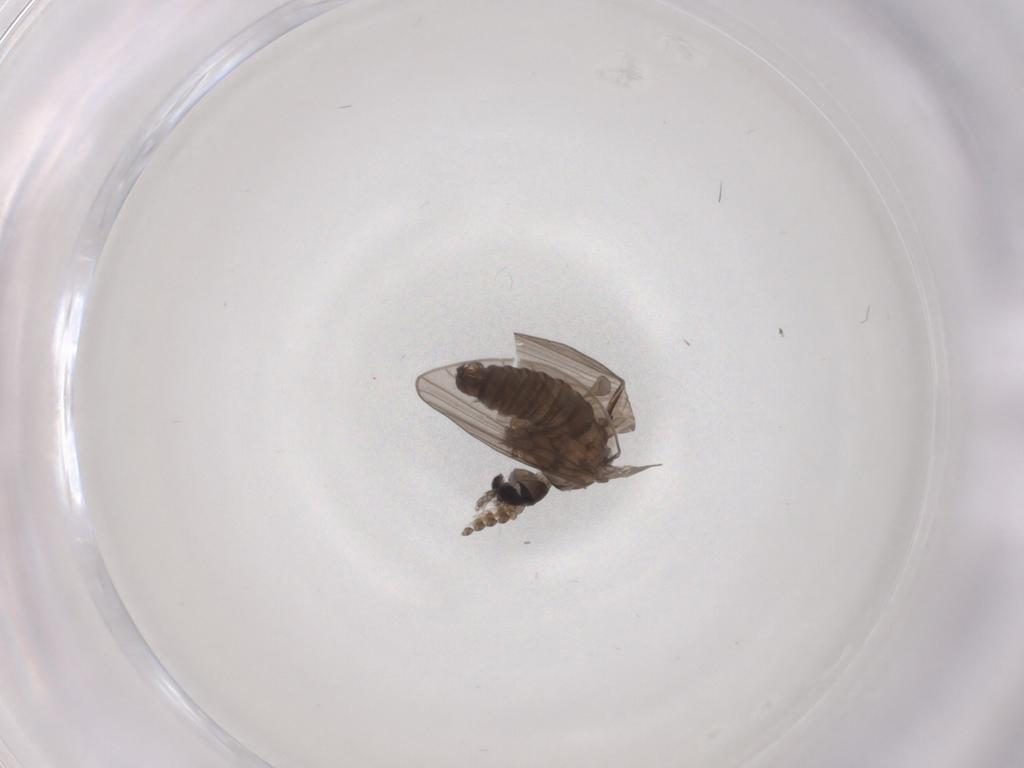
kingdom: Animalia
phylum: Arthropoda
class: Insecta
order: Diptera
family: Psychodidae
